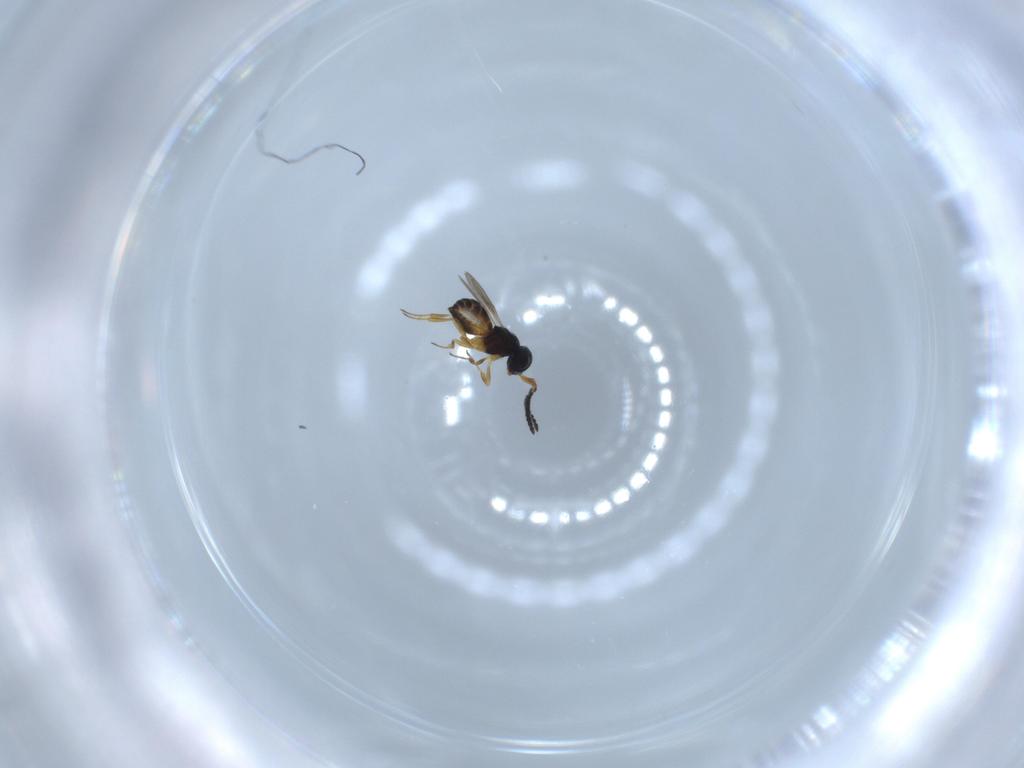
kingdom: Animalia
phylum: Arthropoda
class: Insecta
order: Hymenoptera
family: Scelionidae
